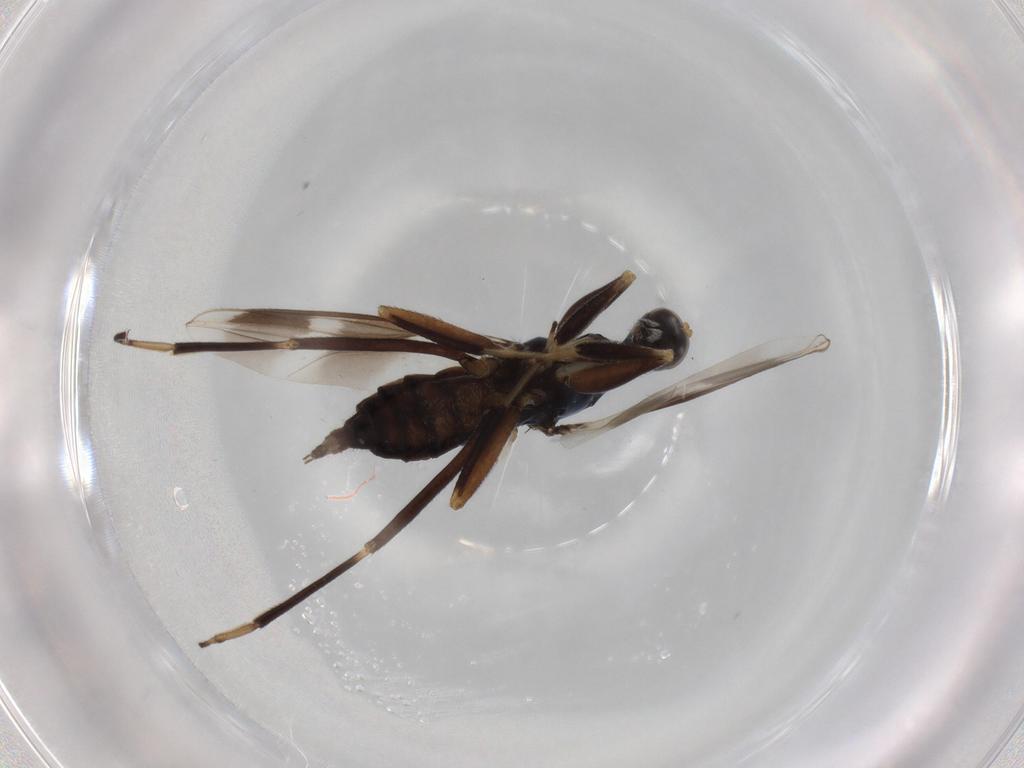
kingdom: Animalia
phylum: Arthropoda
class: Insecta
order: Diptera
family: Hybotidae
